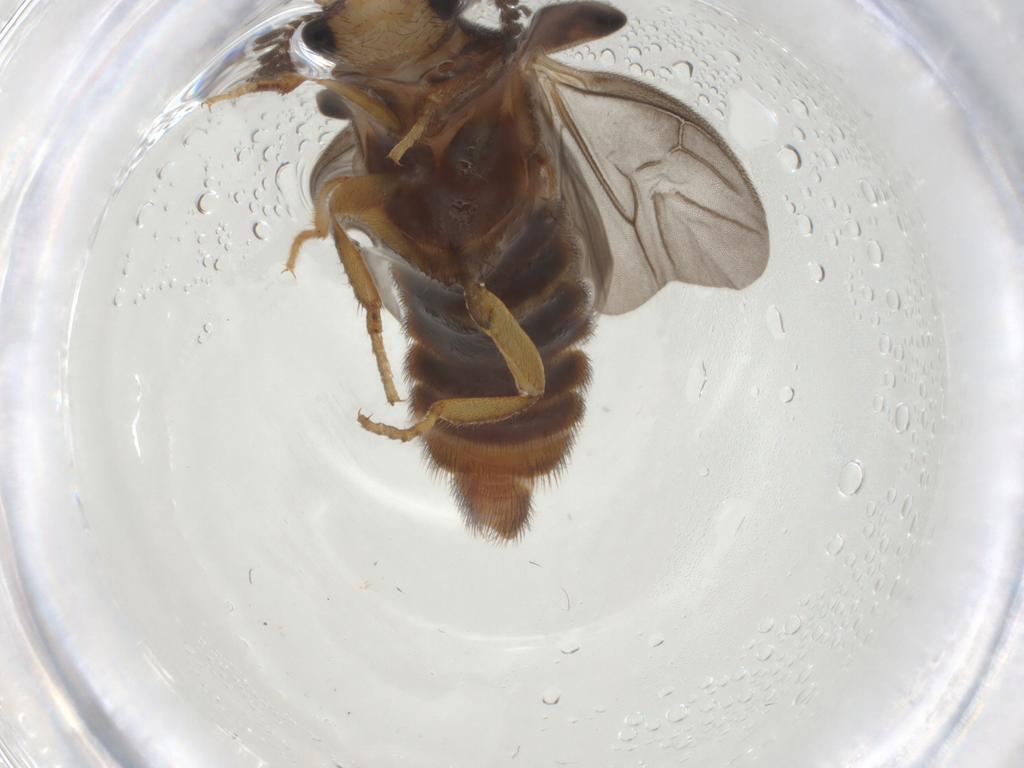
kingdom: Animalia
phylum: Arthropoda
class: Insecta
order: Coleoptera
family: Phengodidae
